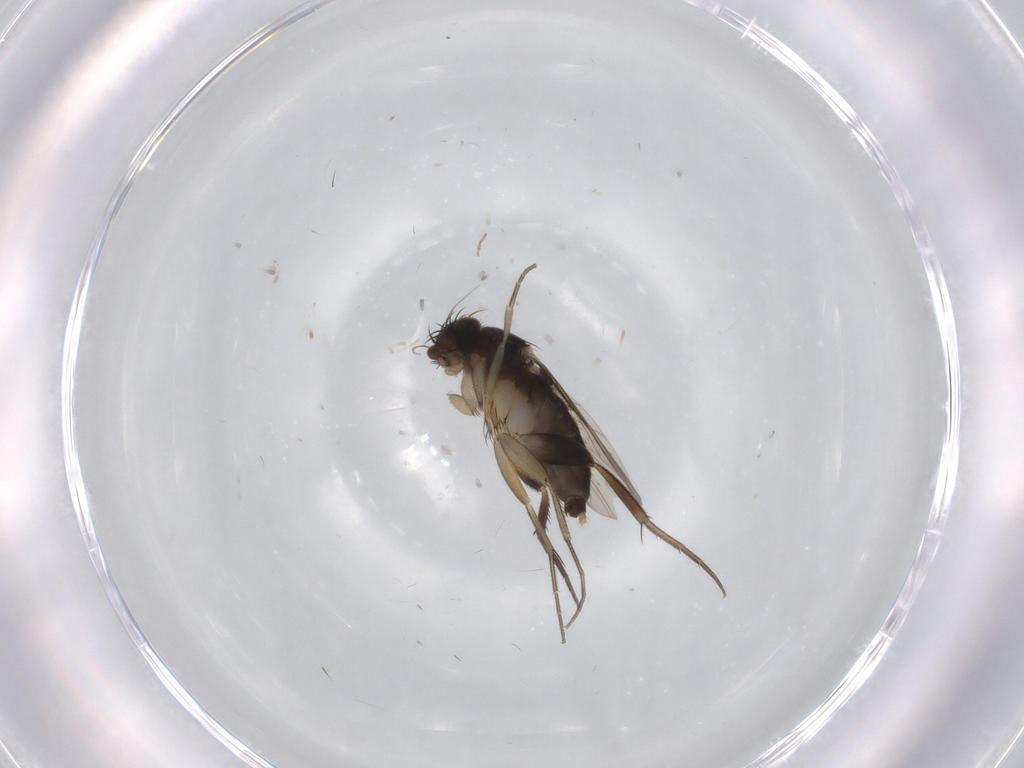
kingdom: Animalia
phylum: Arthropoda
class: Insecta
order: Diptera
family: Phoridae
